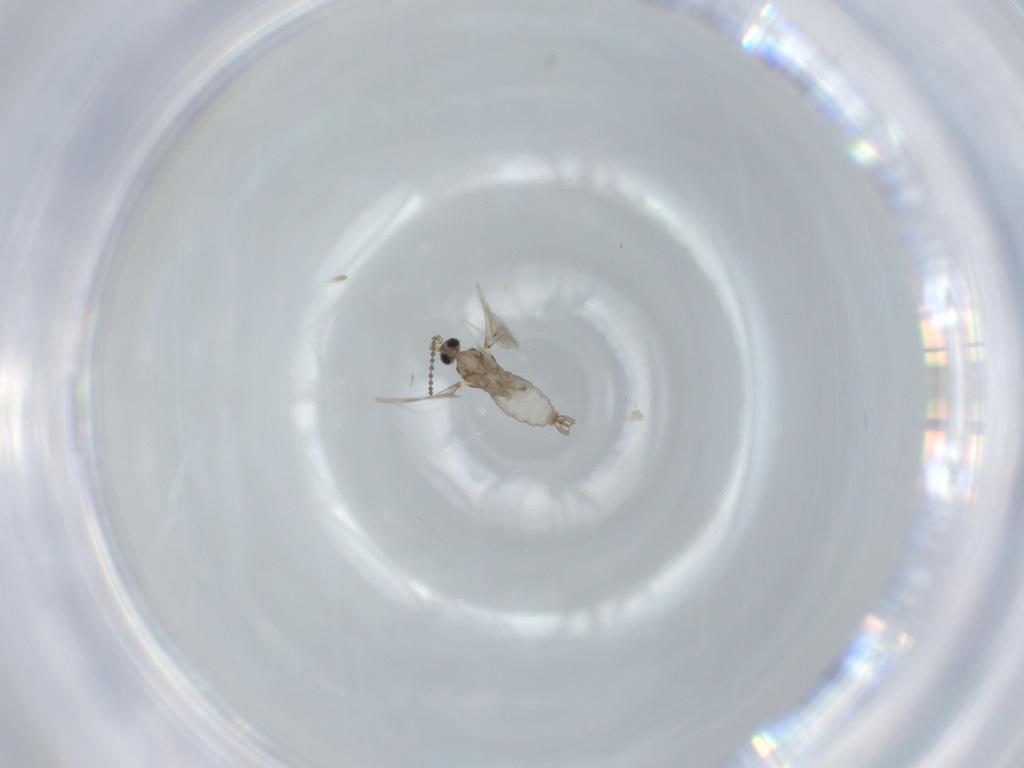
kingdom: Animalia
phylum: Arthropoda
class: Insecta
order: Diptera
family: Cecidomyiidae
